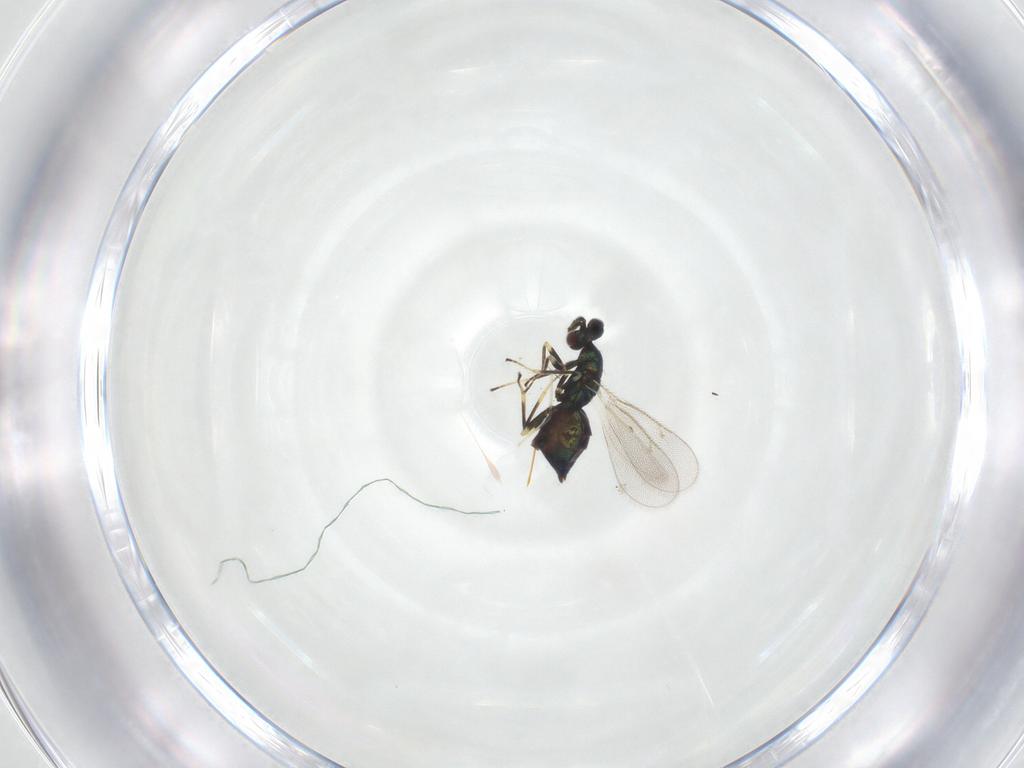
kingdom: Animalia
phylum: Arthropoda
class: Insecta
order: Hymenoptera
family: Eulophidae
